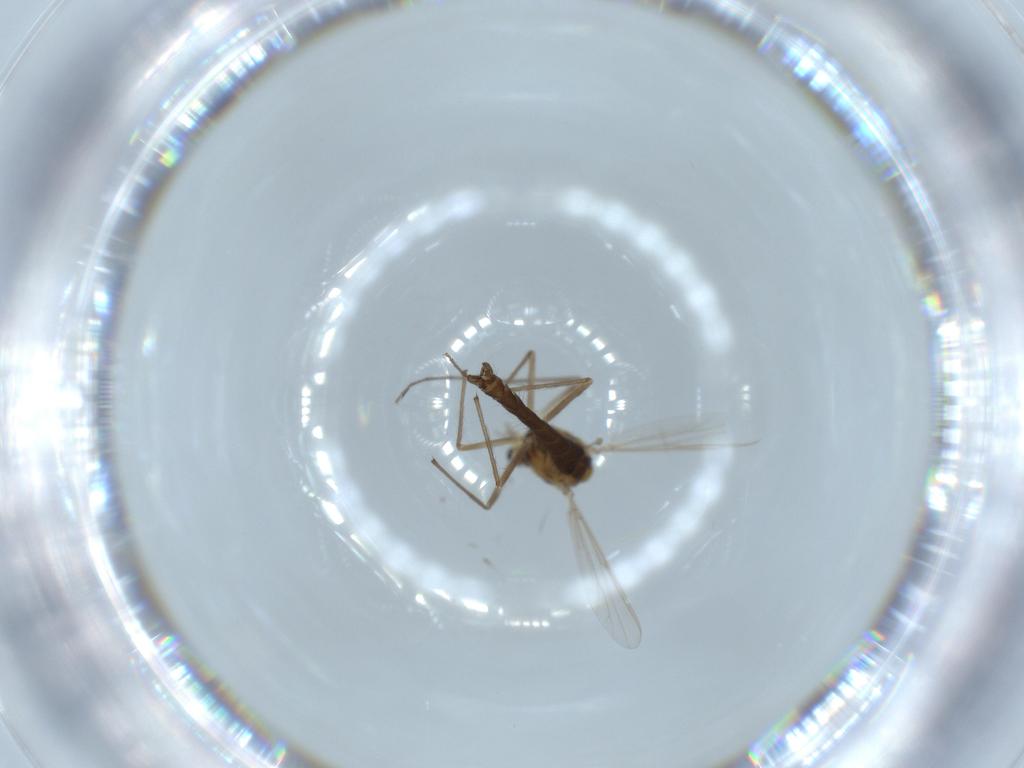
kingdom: Animalia
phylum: Arthropoda
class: Insecta
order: Diptera
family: Chironomidae
